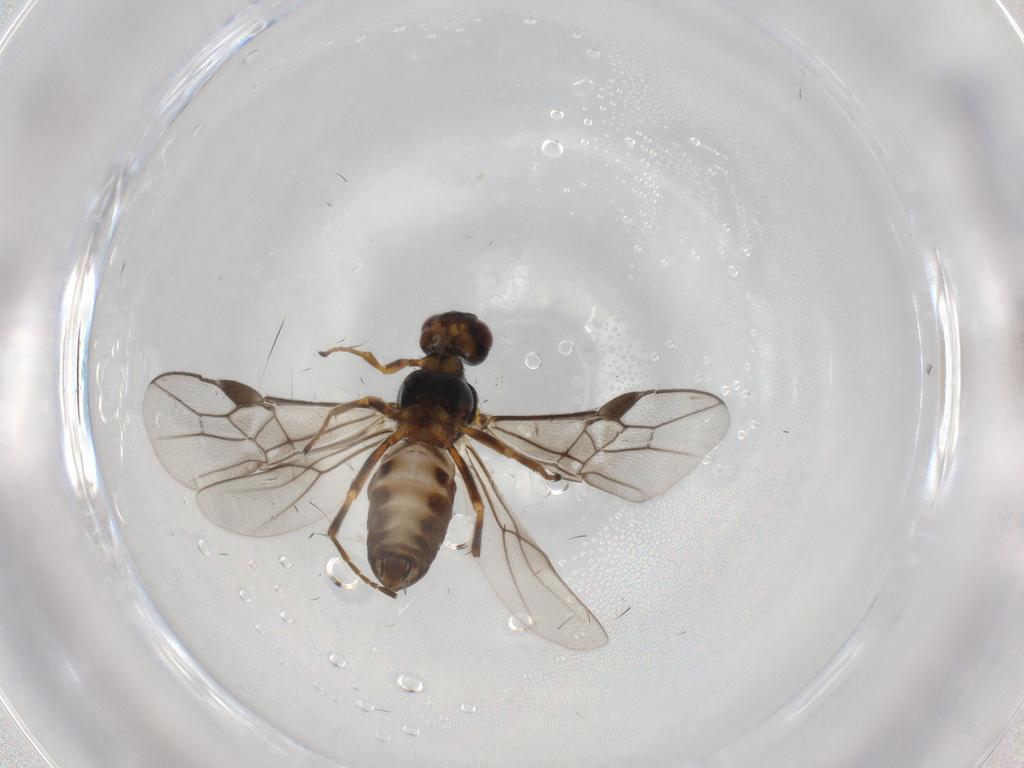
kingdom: Animalia
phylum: Arthropoda
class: Insecta
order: Hymenoptera
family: Braconidae
